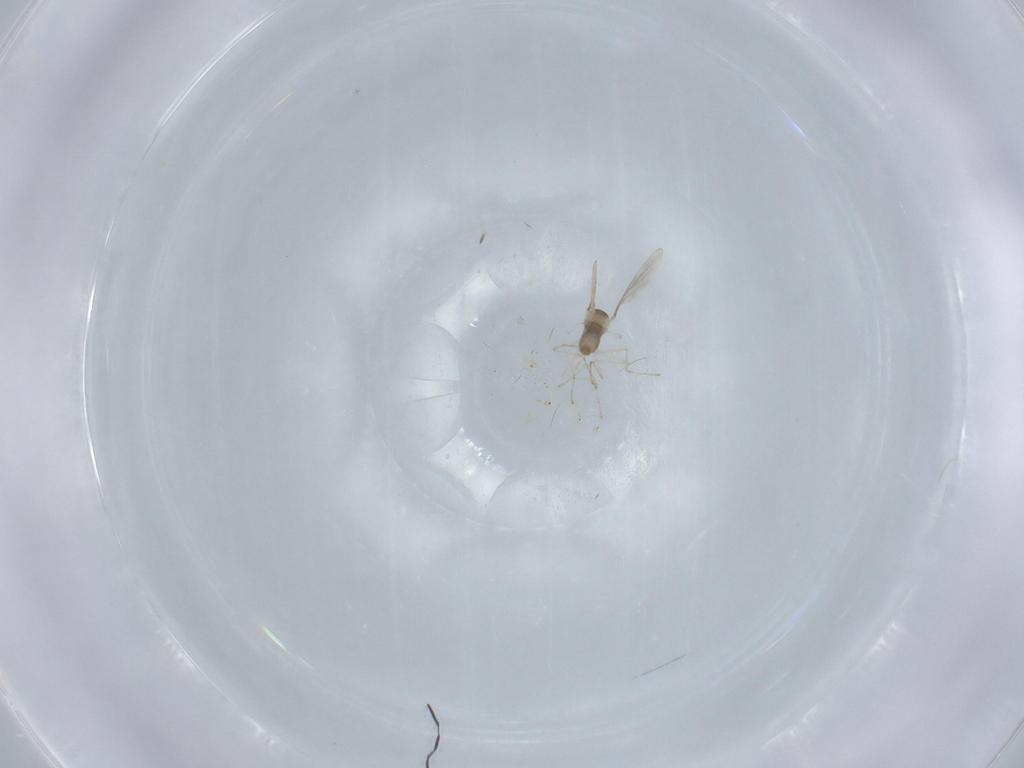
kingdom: Animalia
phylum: Arthropoda
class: Insecta
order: Diptera
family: Cecidomyiidae
